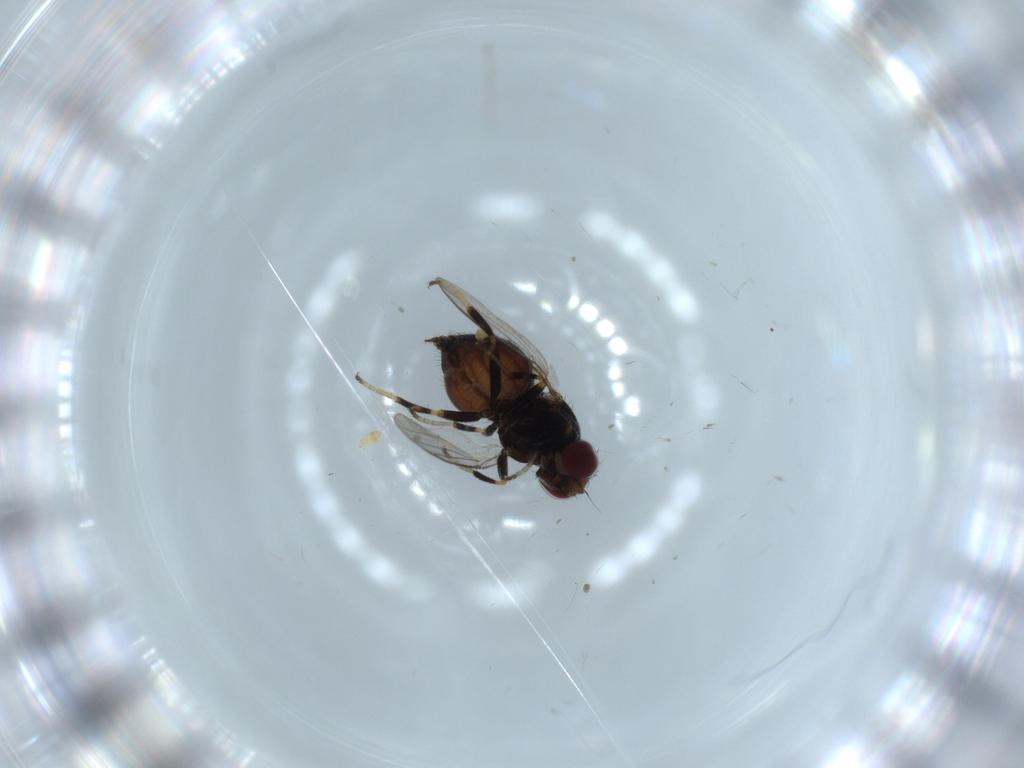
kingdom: Animalia
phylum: Arthropoda
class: Insecta
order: Diptera
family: Chloropidae
